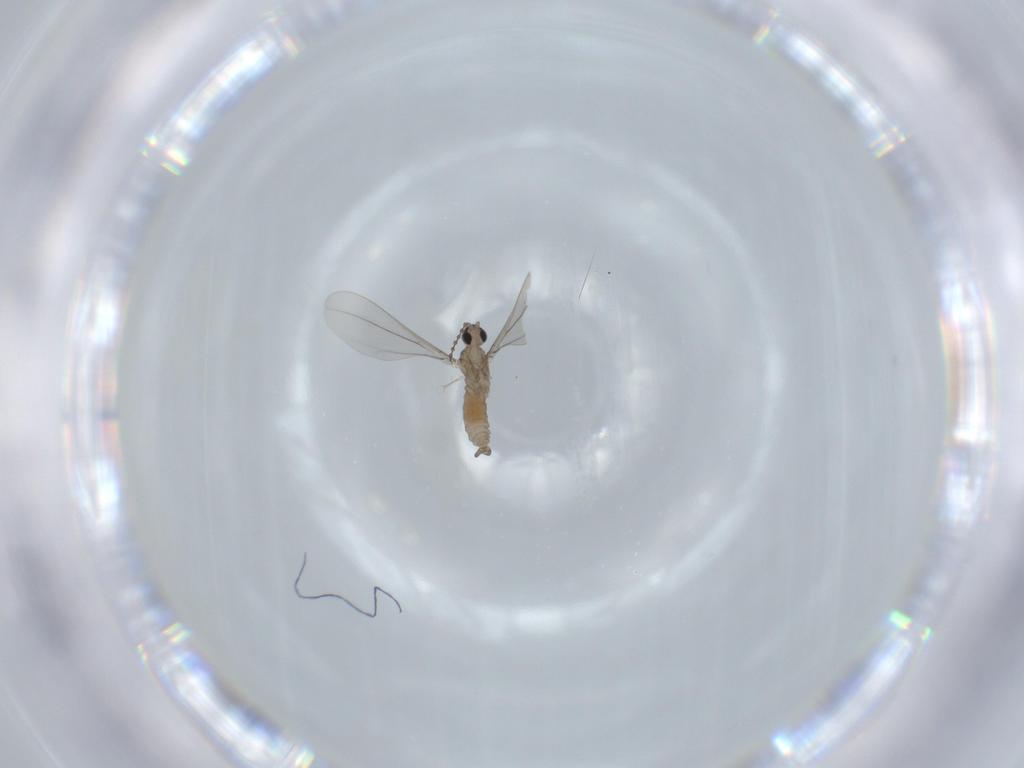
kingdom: Animalia
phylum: Arthropoda
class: Insecta
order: Diptera
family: Cecidomyiidae
